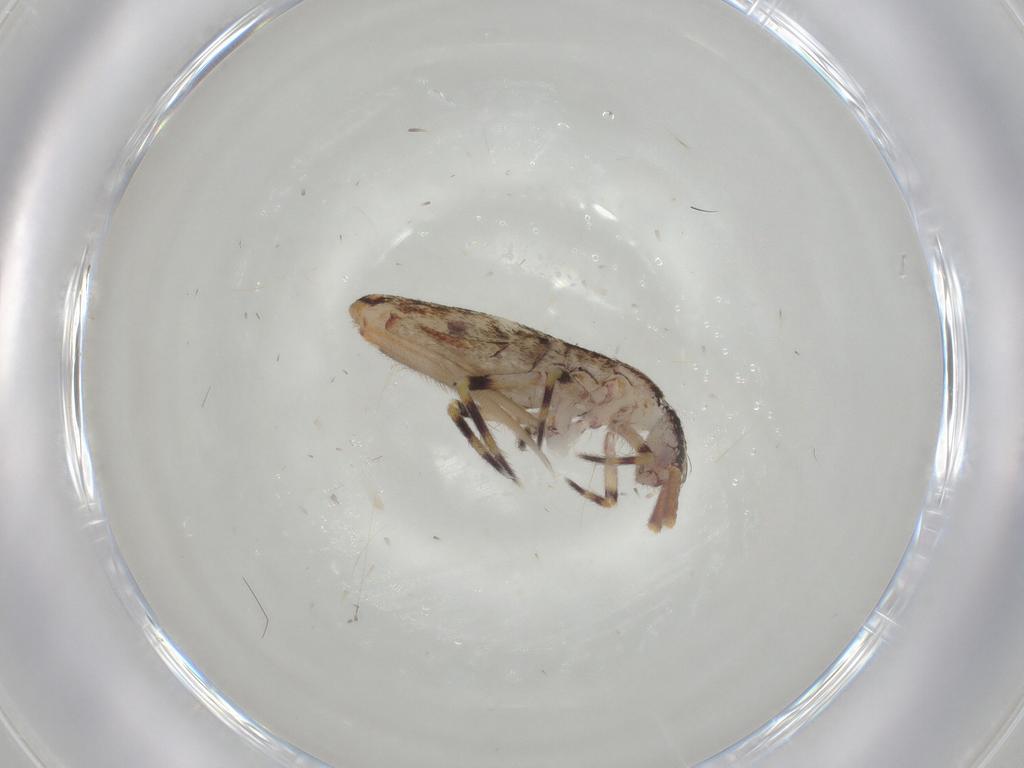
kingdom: Animalia
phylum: Arthropoda
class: Collembola
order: Entomobryomorpha
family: Entomobryidae
